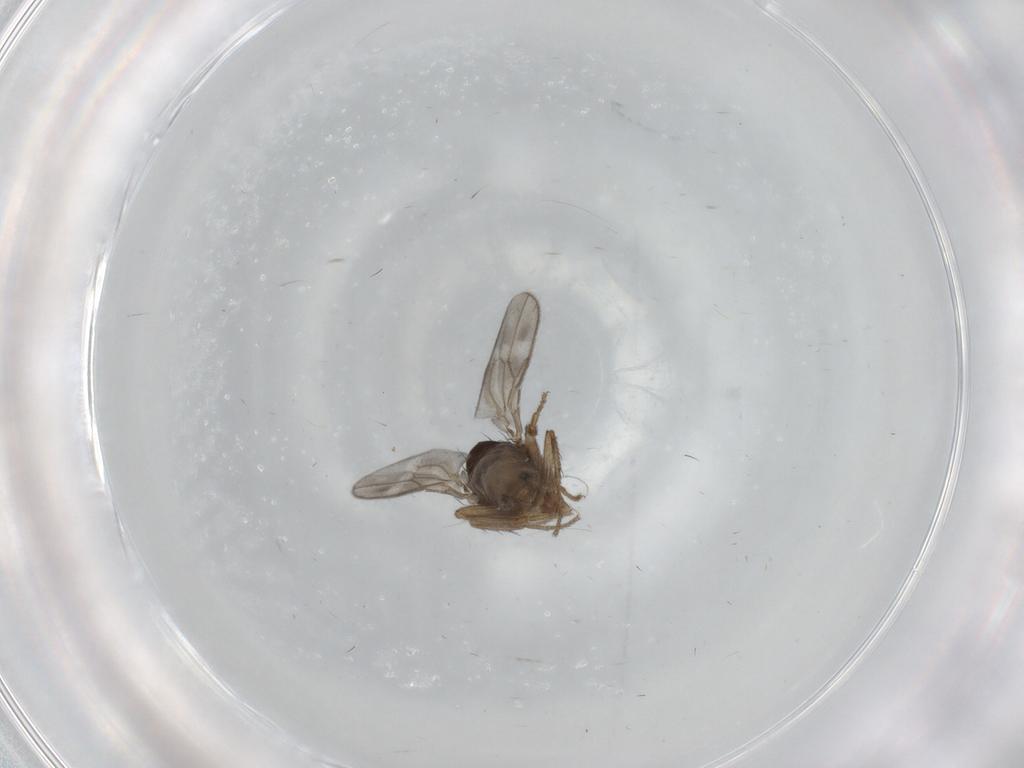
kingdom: Animalia
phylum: Arthropoda
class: Insecta
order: Diptera
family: Sphaeroceridae
